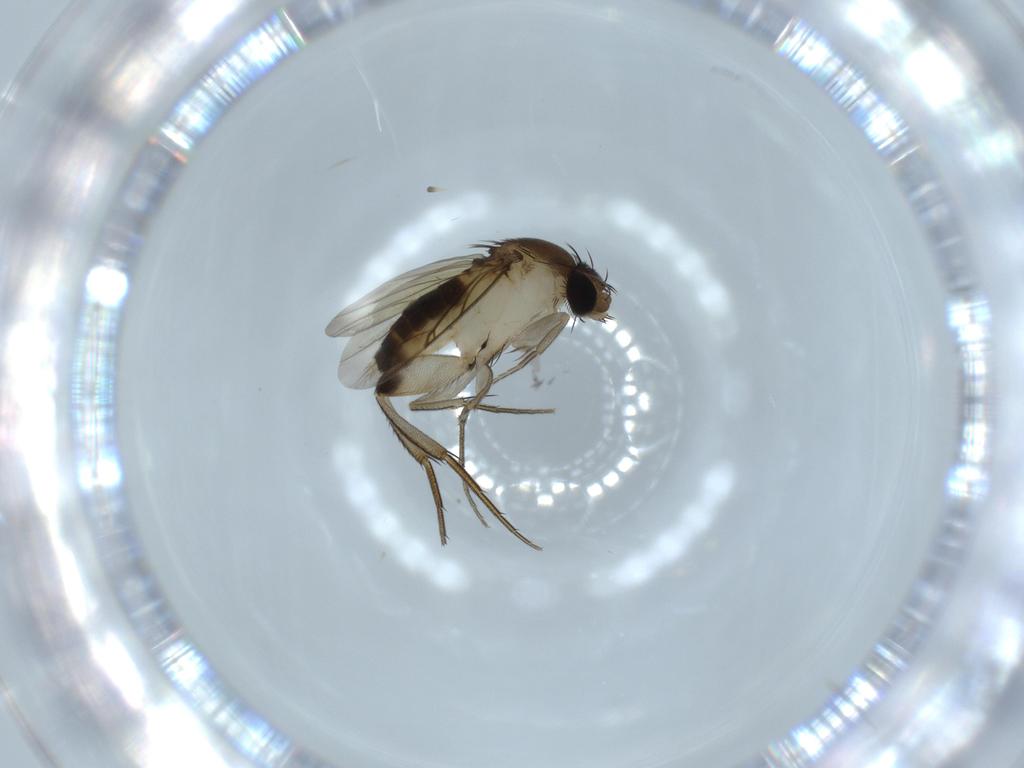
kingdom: Animalia
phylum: Arthropoda
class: Insecta
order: Diptera
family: Phoridae
